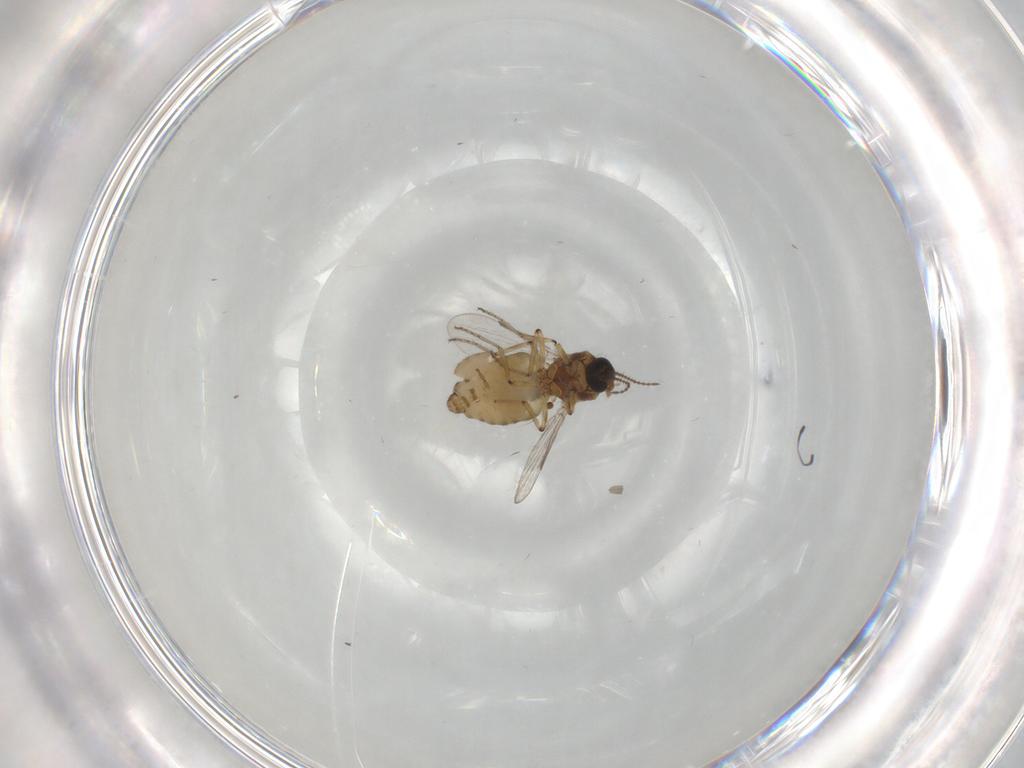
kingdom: Animalia
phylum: Arthropoda
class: Insecta
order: Diptera
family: Ceratopogonidae
